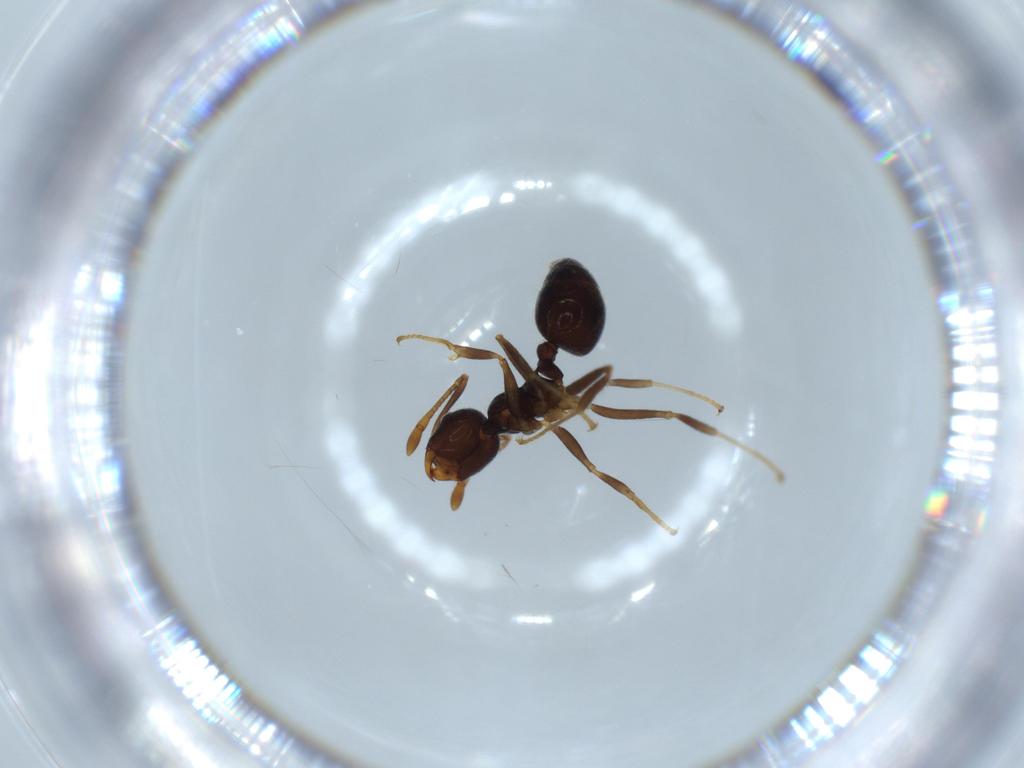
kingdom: Animalia
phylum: Arthropoda
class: Insecta
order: Hymenoptera
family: Formicidae
